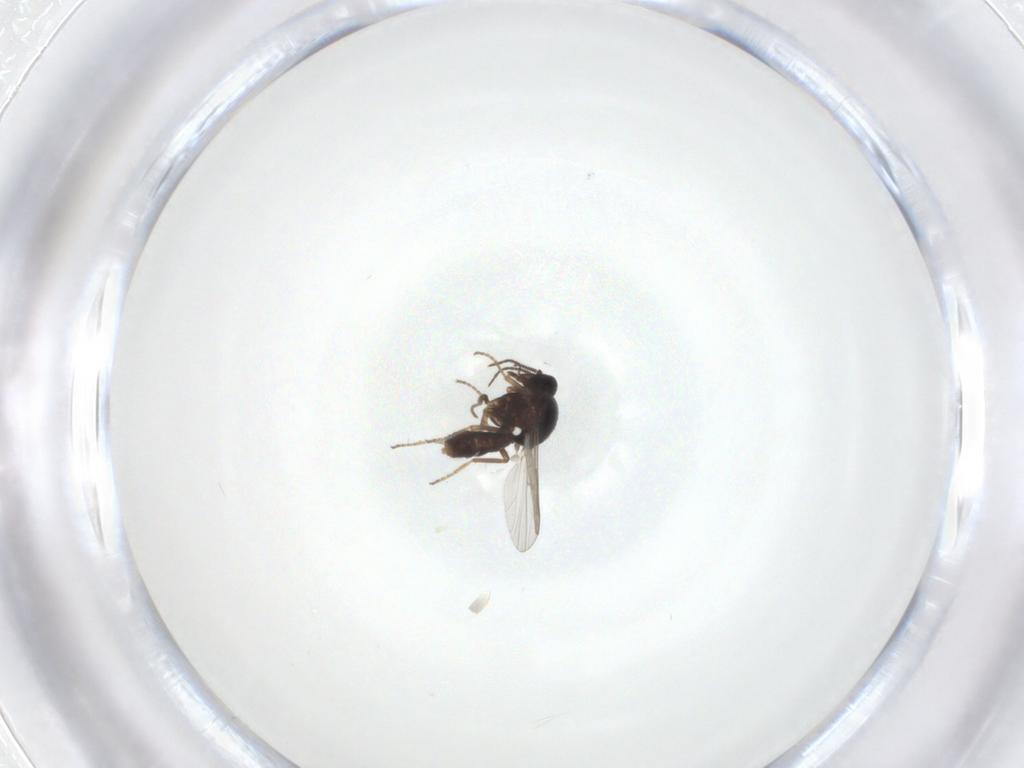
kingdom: Animalia
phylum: Arthropoda
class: Insecta
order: Diptera
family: Ceratopogonidae
